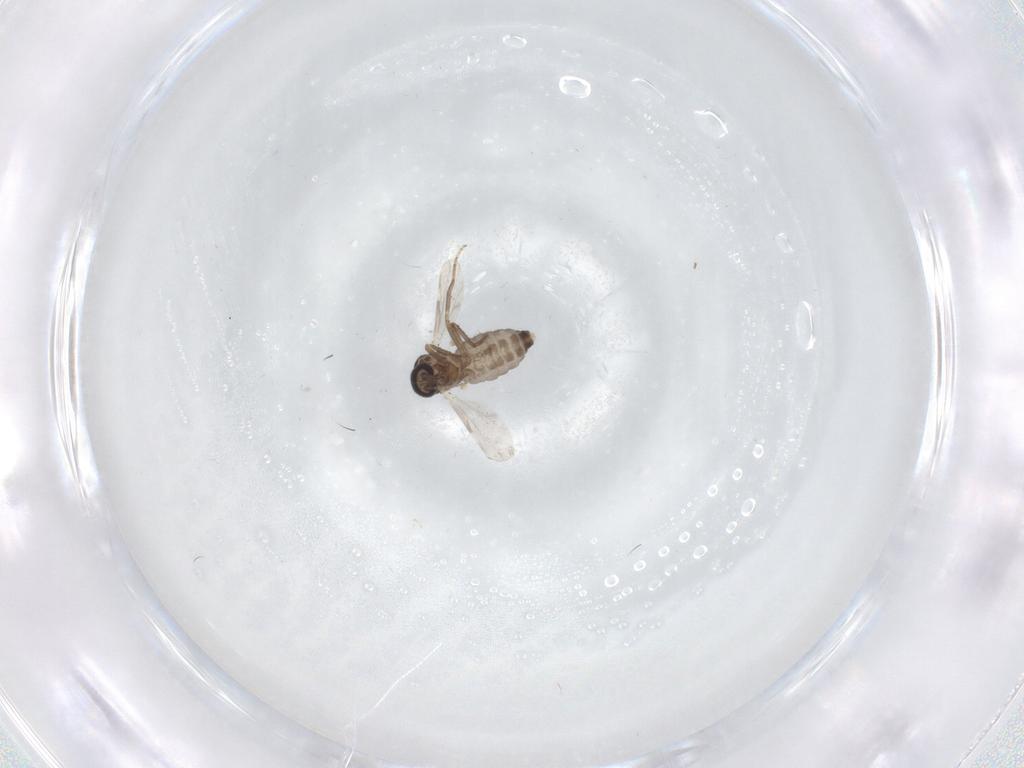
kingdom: Animalia
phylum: Arthropoda
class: Insecta
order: Diptera
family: Ceratopogonidae
